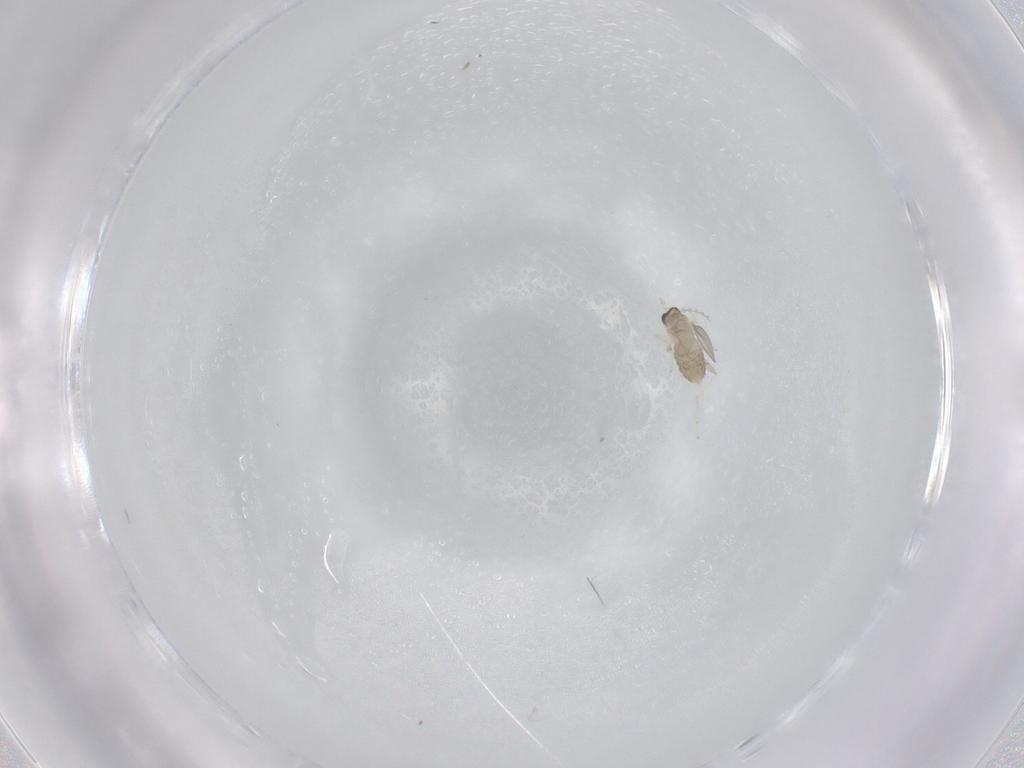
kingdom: Animalia
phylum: Arthropoda
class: Insecta
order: Diptera
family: Cecidomyiidae
